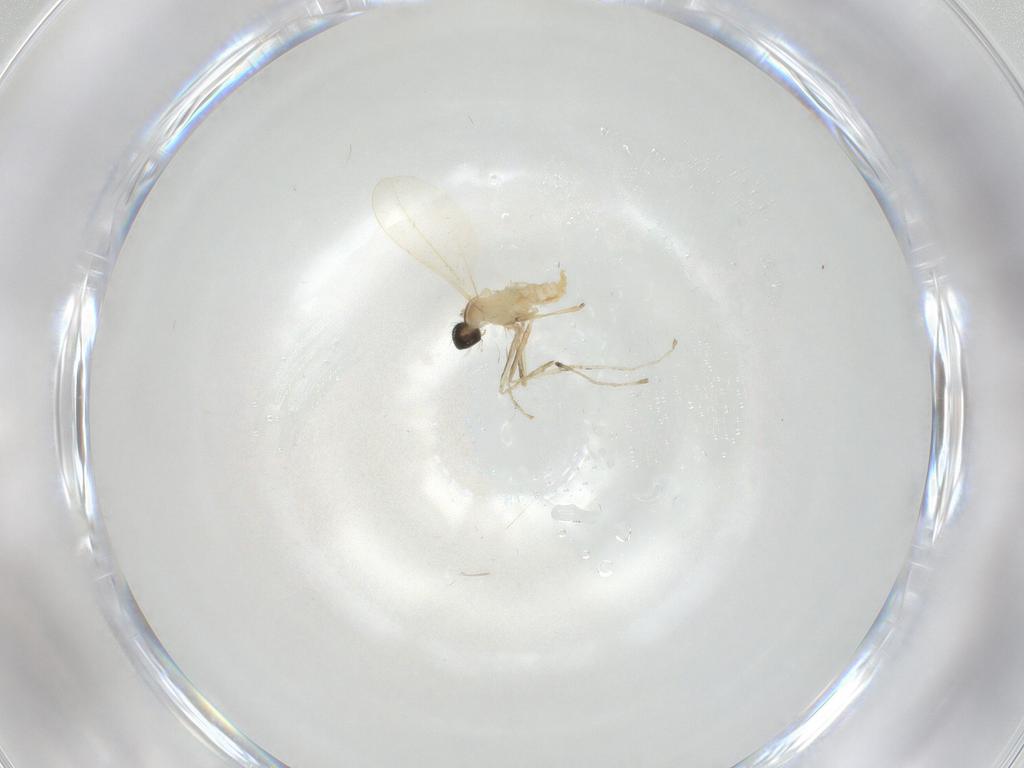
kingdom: Animalia
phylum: Arthropoda
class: Insecta
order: Diptera
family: Cecidomyiidae
